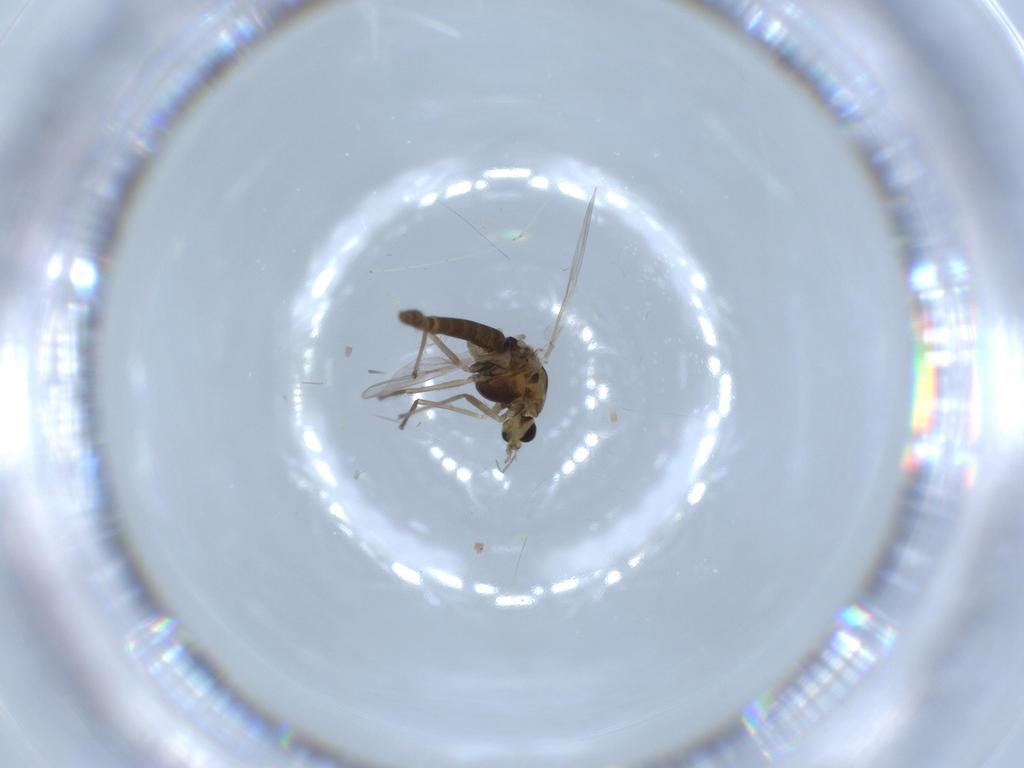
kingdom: Animalia
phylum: Arthropoda
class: Insecta
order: Diptera
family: Chironomidae
